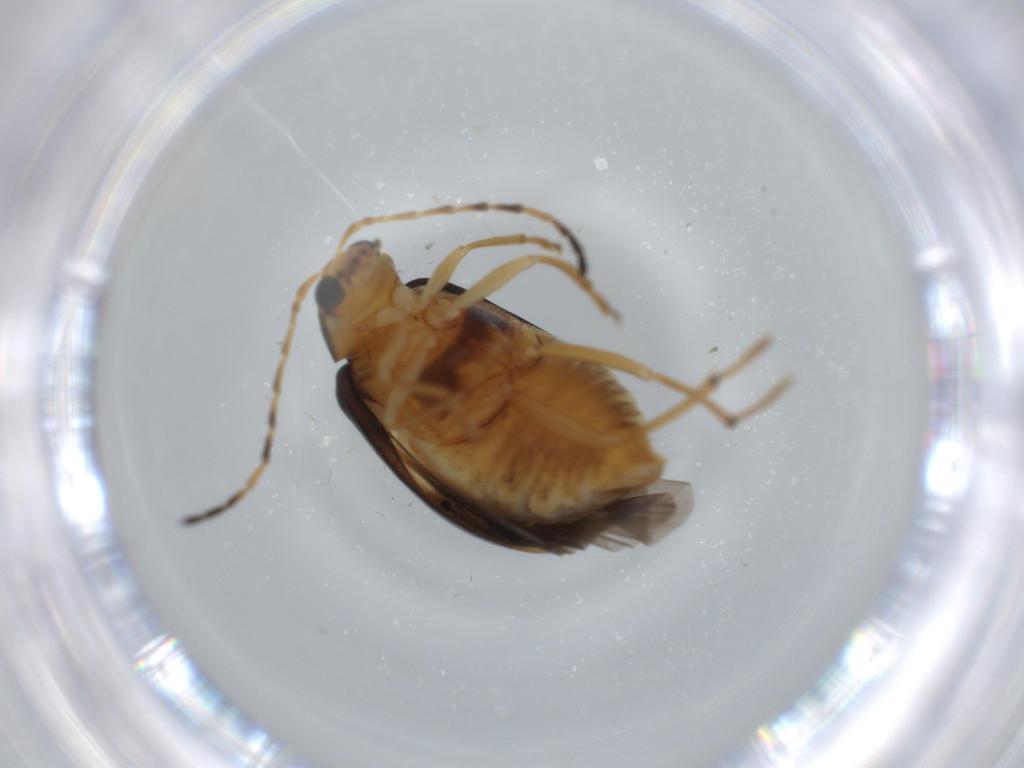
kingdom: Animalia
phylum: Arthropoda
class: Insecta
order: Coleoptera
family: Chrysomelidae
